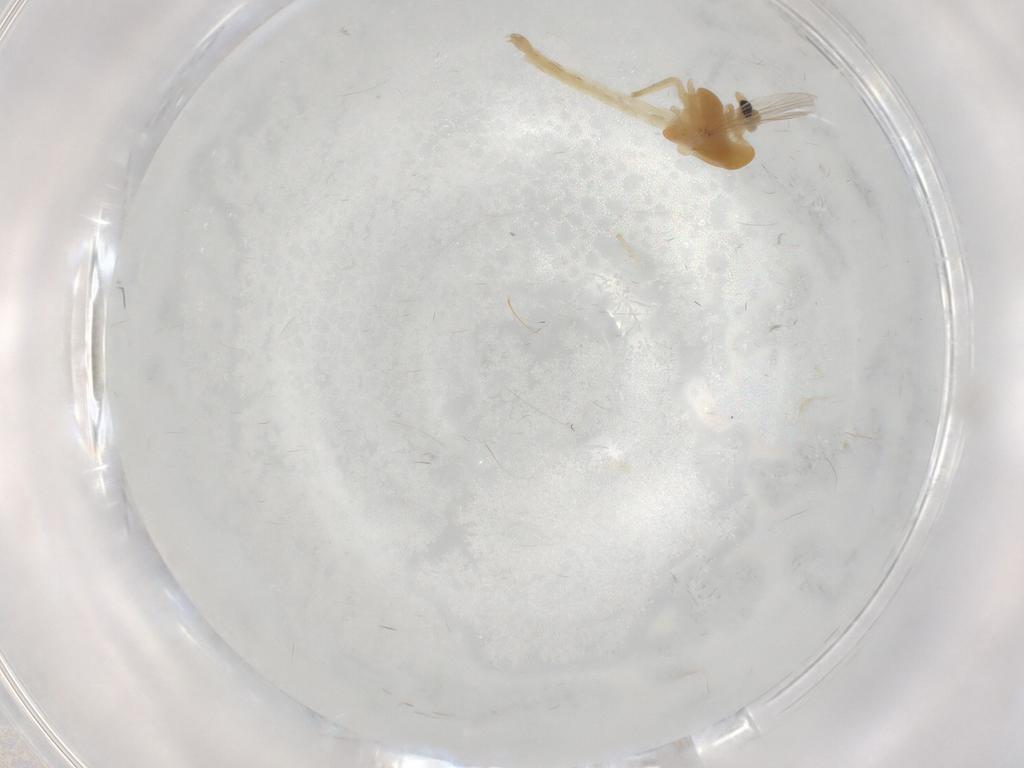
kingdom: Animalia
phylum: Arthropoda
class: Insecta
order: Diptera
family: Chironomidae
